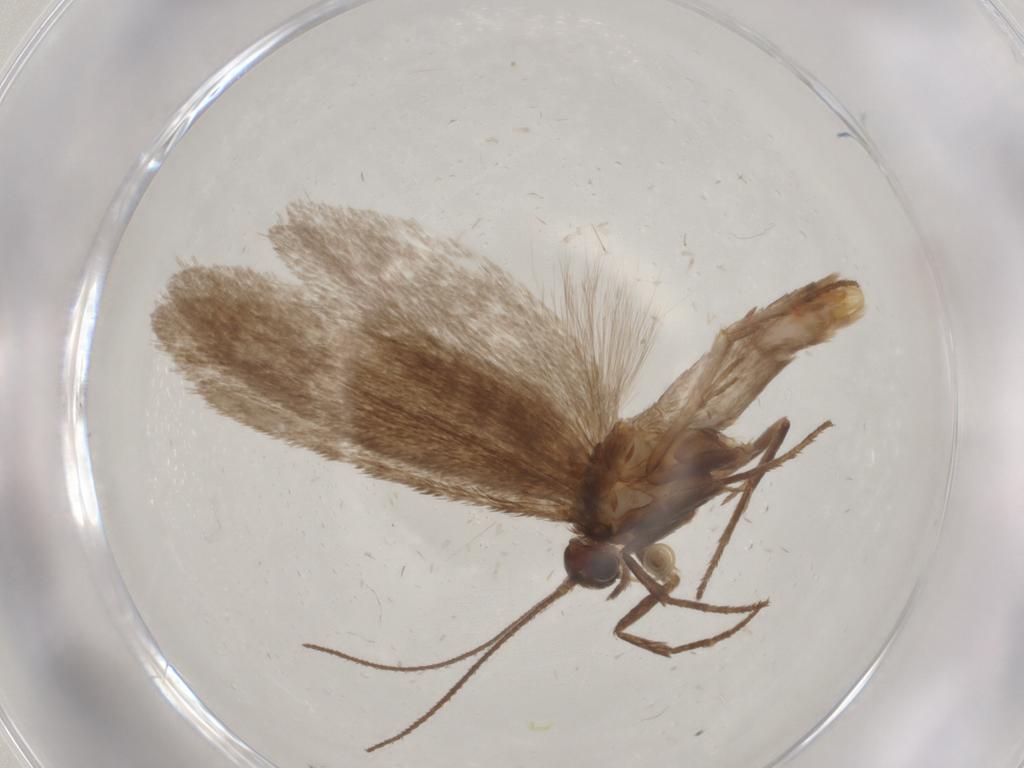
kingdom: Animalia
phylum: Arthropoda
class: Insecta
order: Lepidoptera
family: Limacodidae
